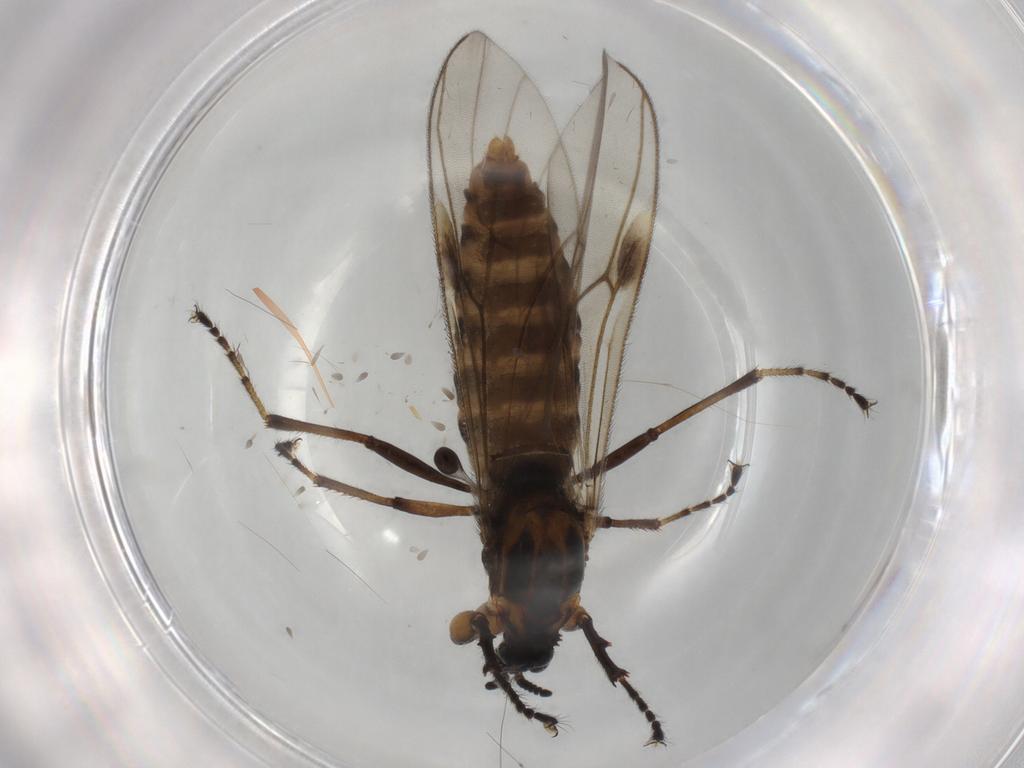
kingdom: Animalia
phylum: Arthropoda
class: Insecta
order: Diptera
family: Bibionidae
